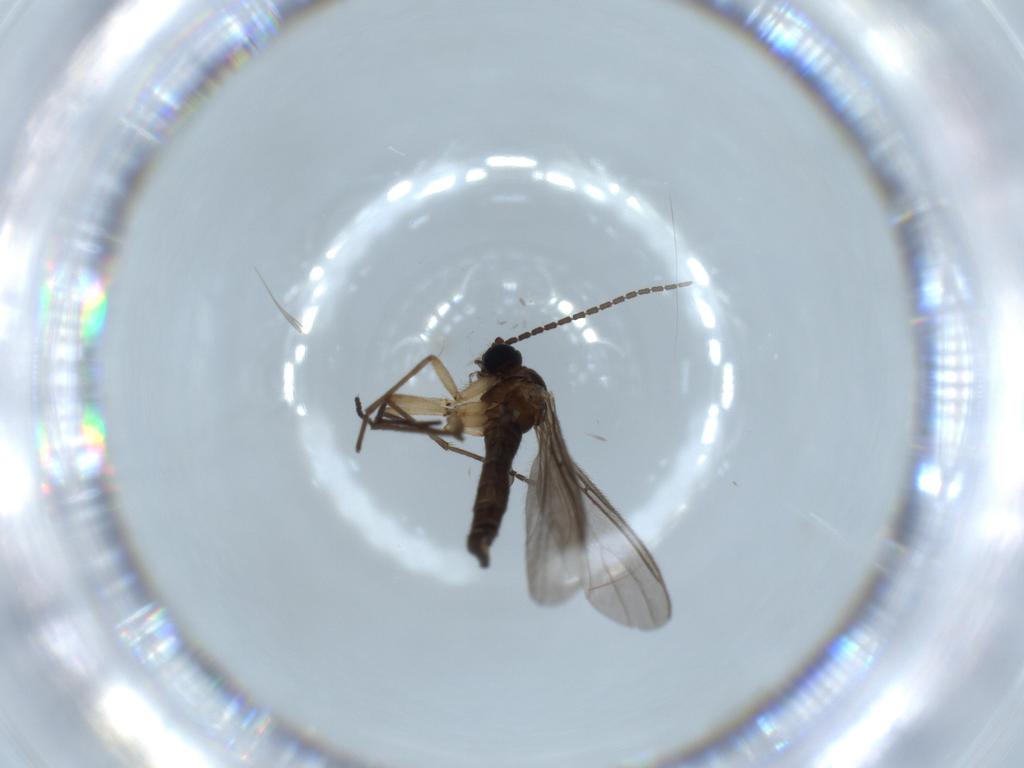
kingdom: Animalia
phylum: Arthropoda
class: Insecta
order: Diptera
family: Sciaridae
